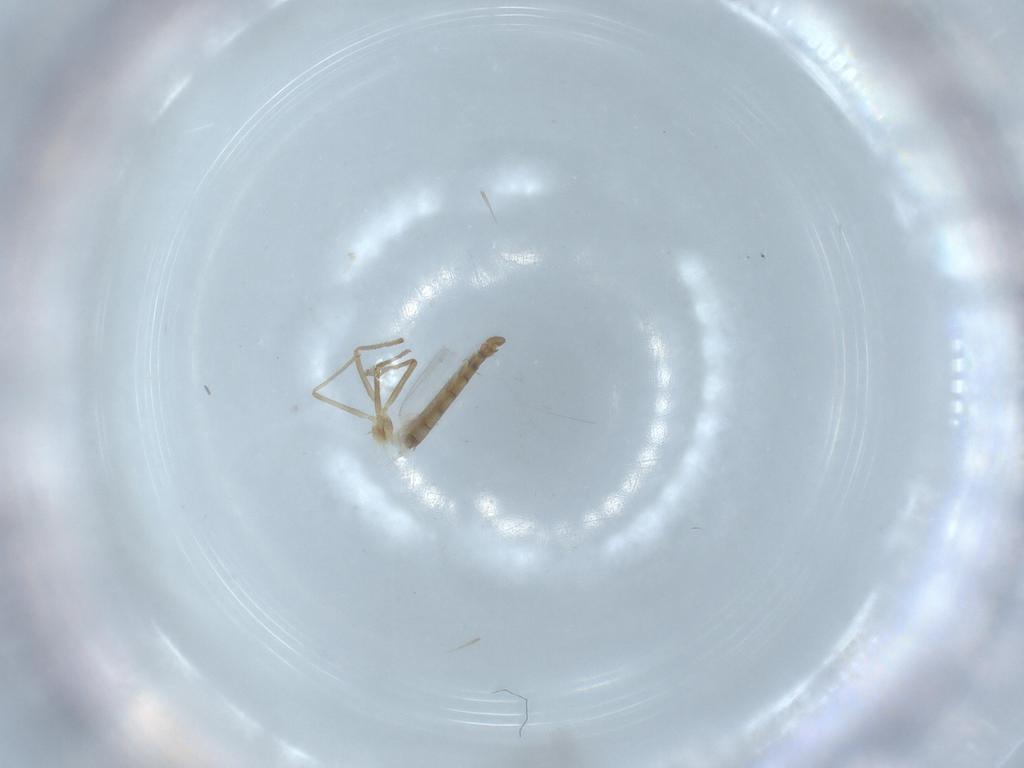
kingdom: Animalia
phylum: Arthropoda
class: Insecta
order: Diptera
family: Chironomidae
